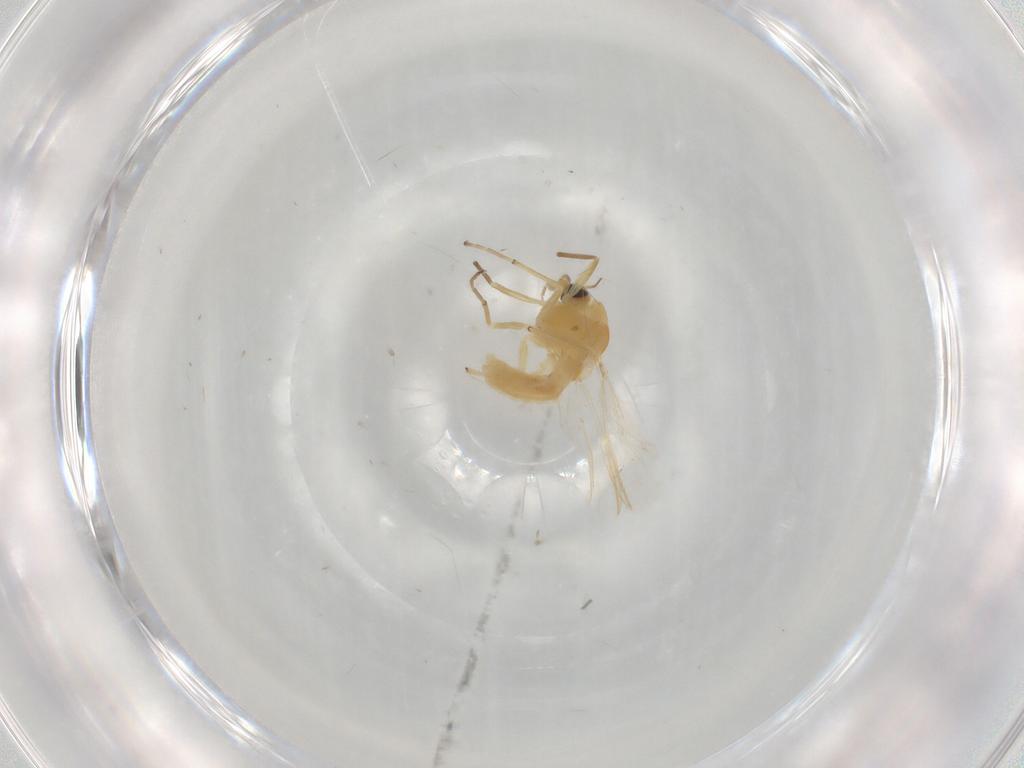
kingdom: Animalia
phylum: Arthropoda
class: Insecta
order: Diptera
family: Chironomidae
